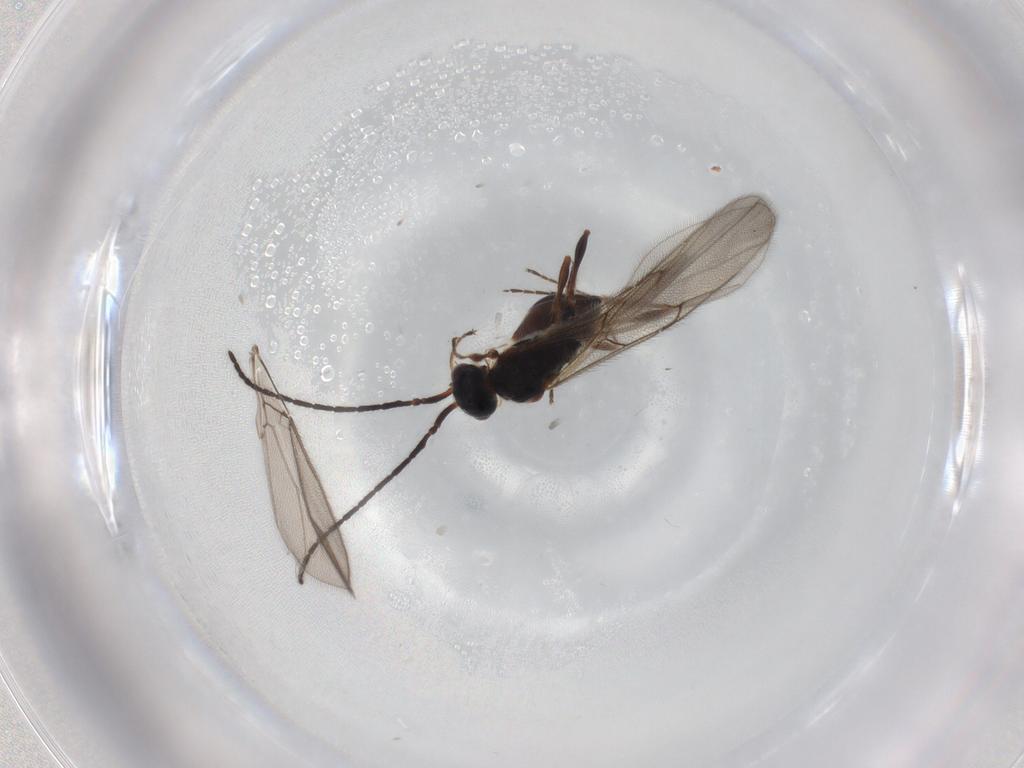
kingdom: Animalia
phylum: Arthropoda
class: Insecta
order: Hymenoptera
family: Diapriidae
